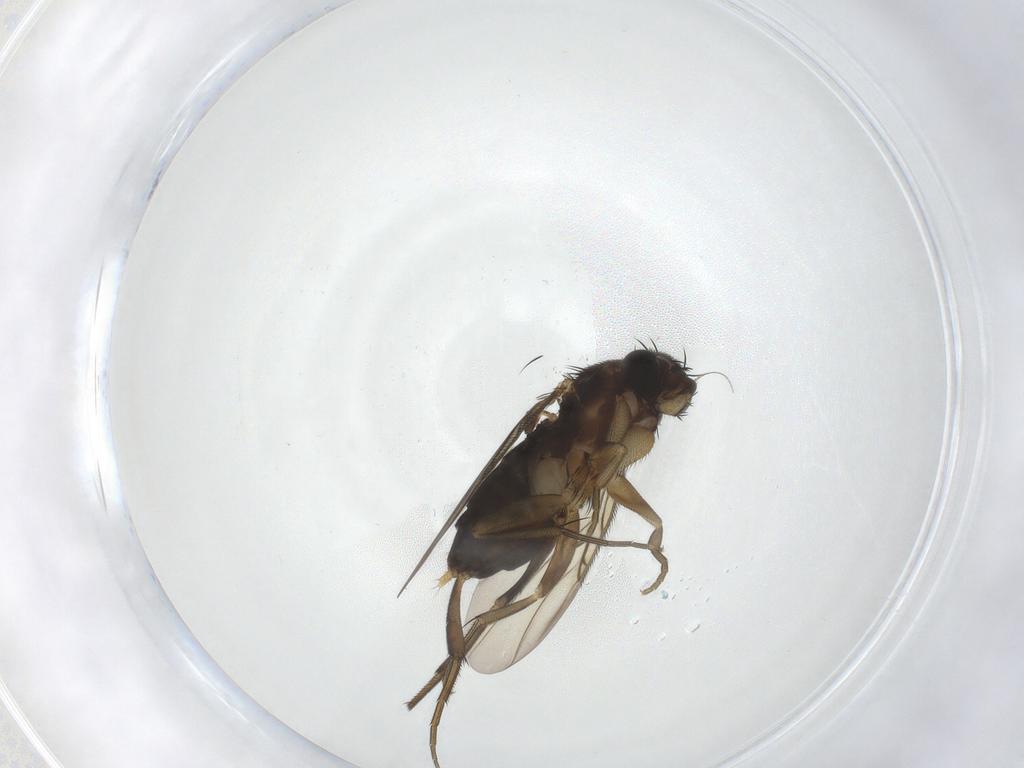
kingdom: Animalia
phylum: Arthropoda
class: Insecta
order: Diptera
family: Phoridae
